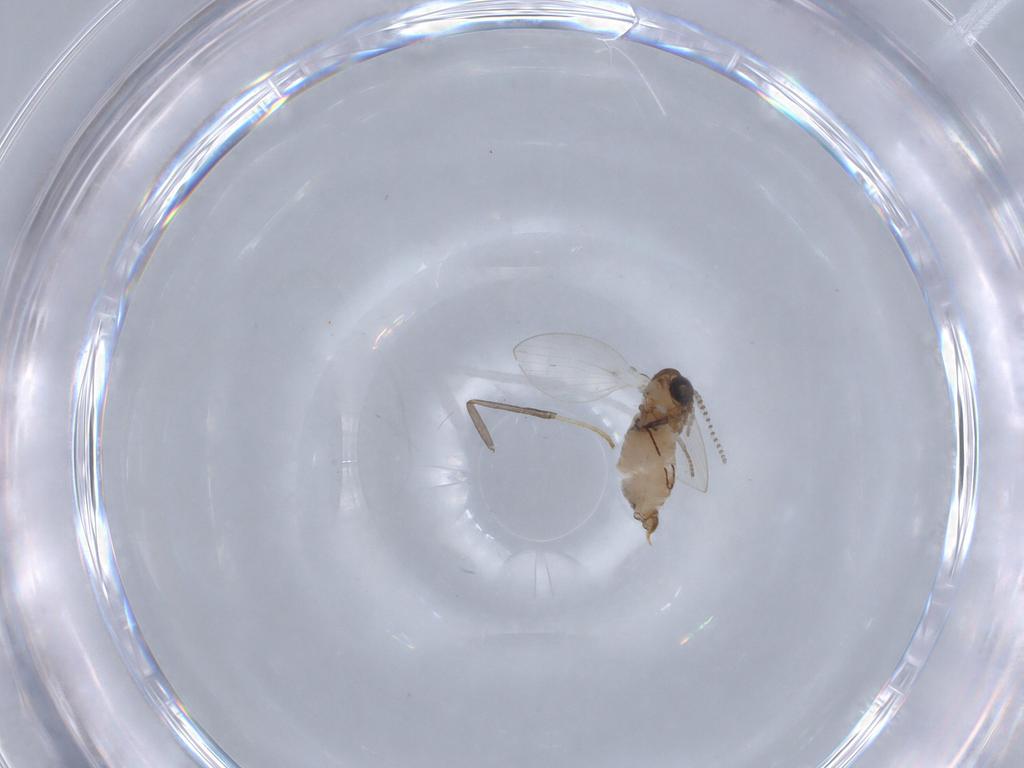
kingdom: Animalia
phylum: Arthropoda
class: Insecta
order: Diptera
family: Psychodidae
